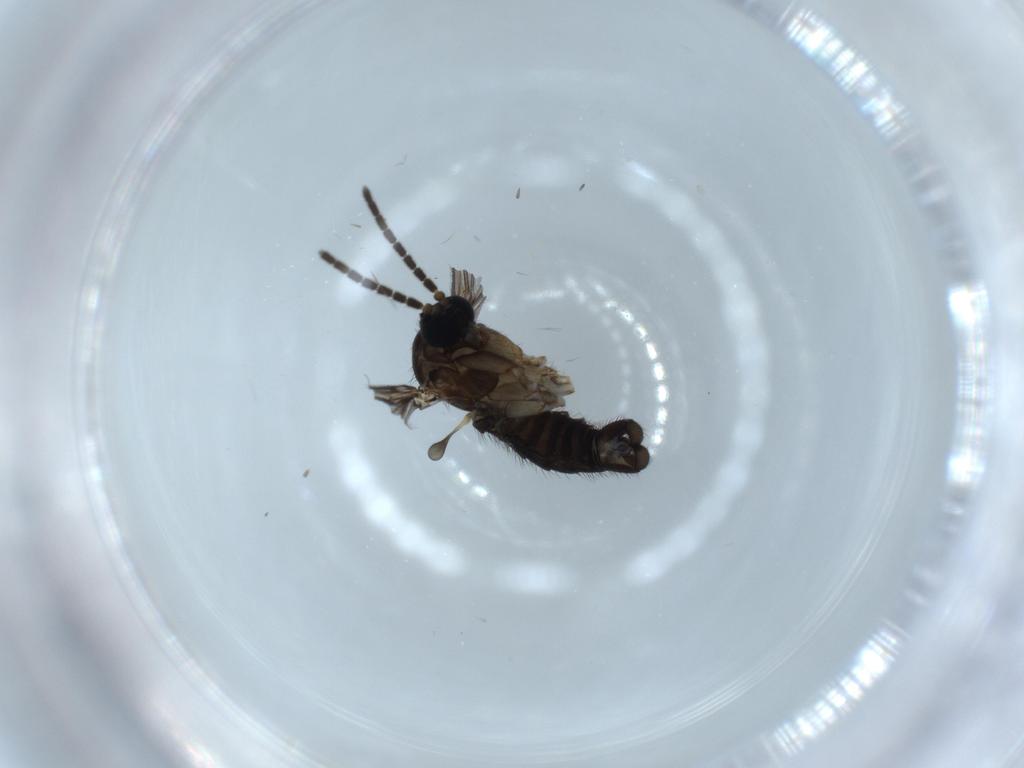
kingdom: Animalia
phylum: Arthropoda
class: Insecta
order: Diptera
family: Sciaridae
